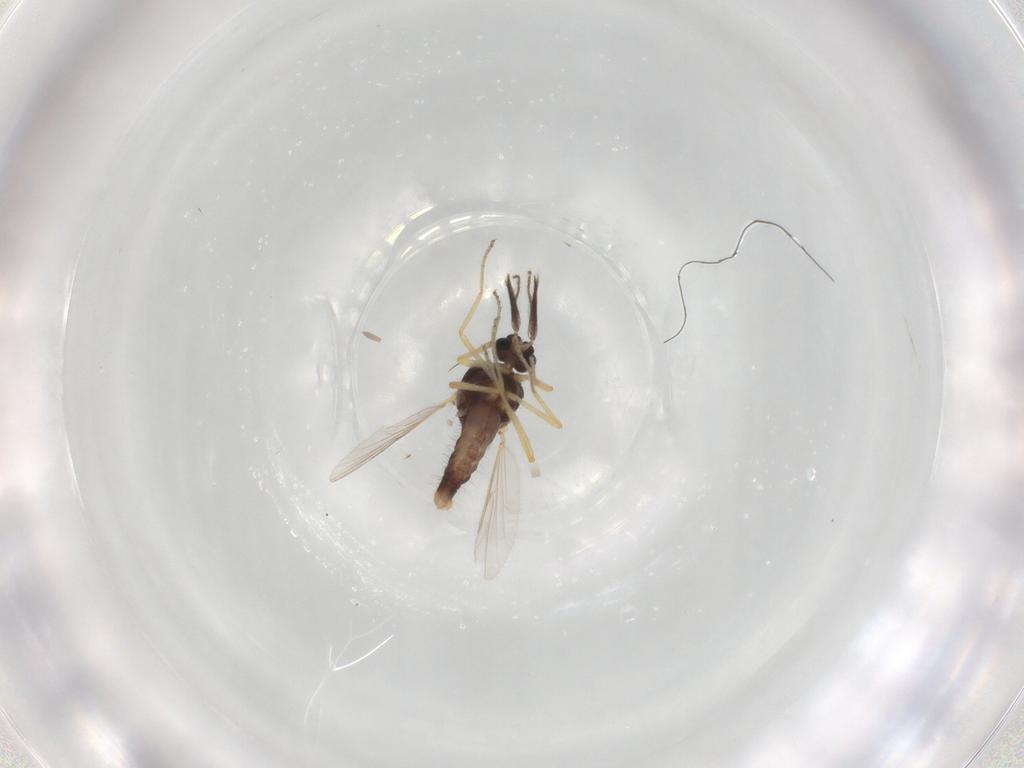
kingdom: Animalia
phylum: Arthropoda
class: Insecta
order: Diptera
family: Ceratopogonidae
